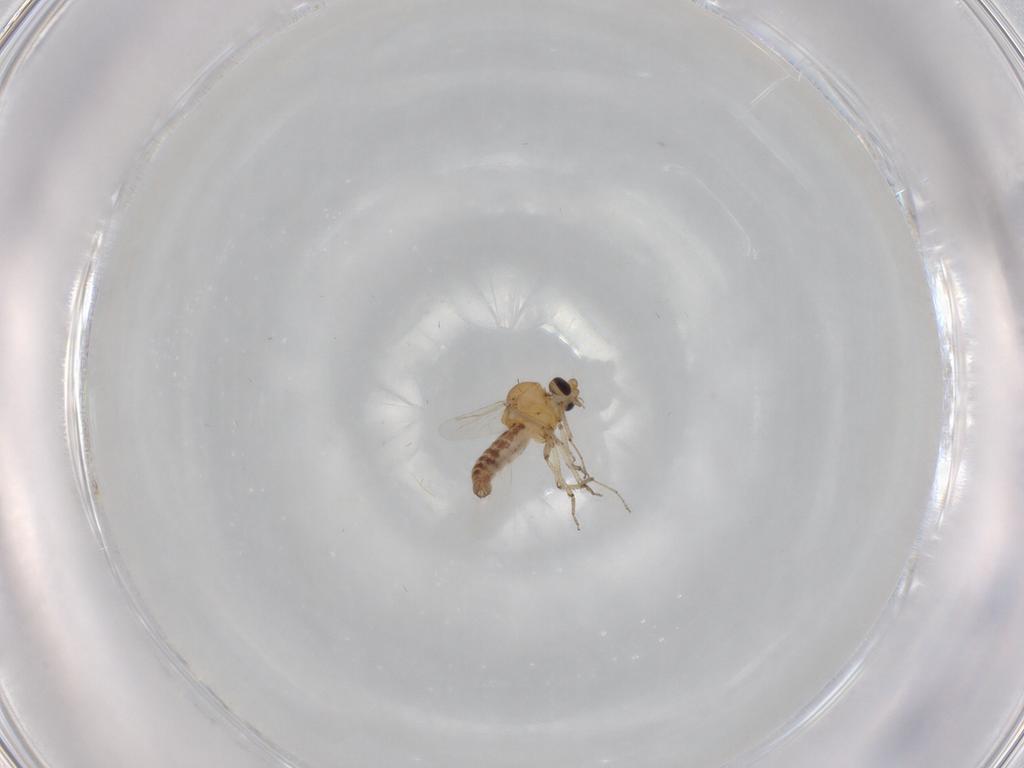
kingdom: Animalia
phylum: Arthropoda
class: Insecta
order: Diptera
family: Ceratopogonidae
